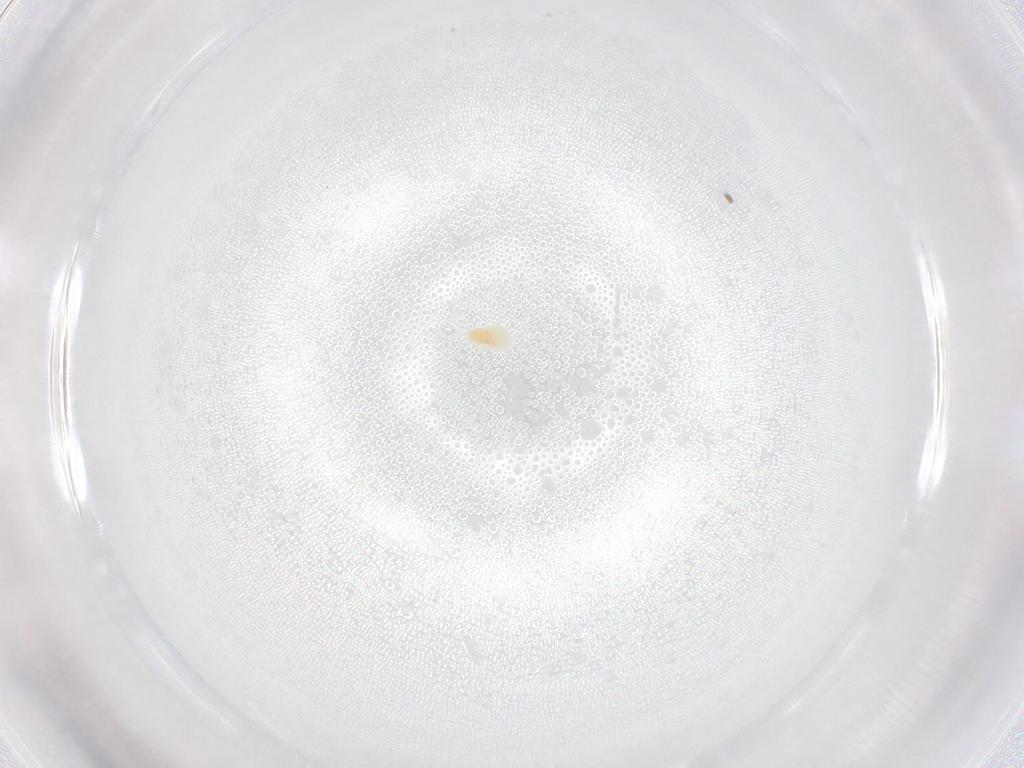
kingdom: Animalia
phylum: Arthropoda
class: Arachnida
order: Trombidiformes
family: Eupodidae
